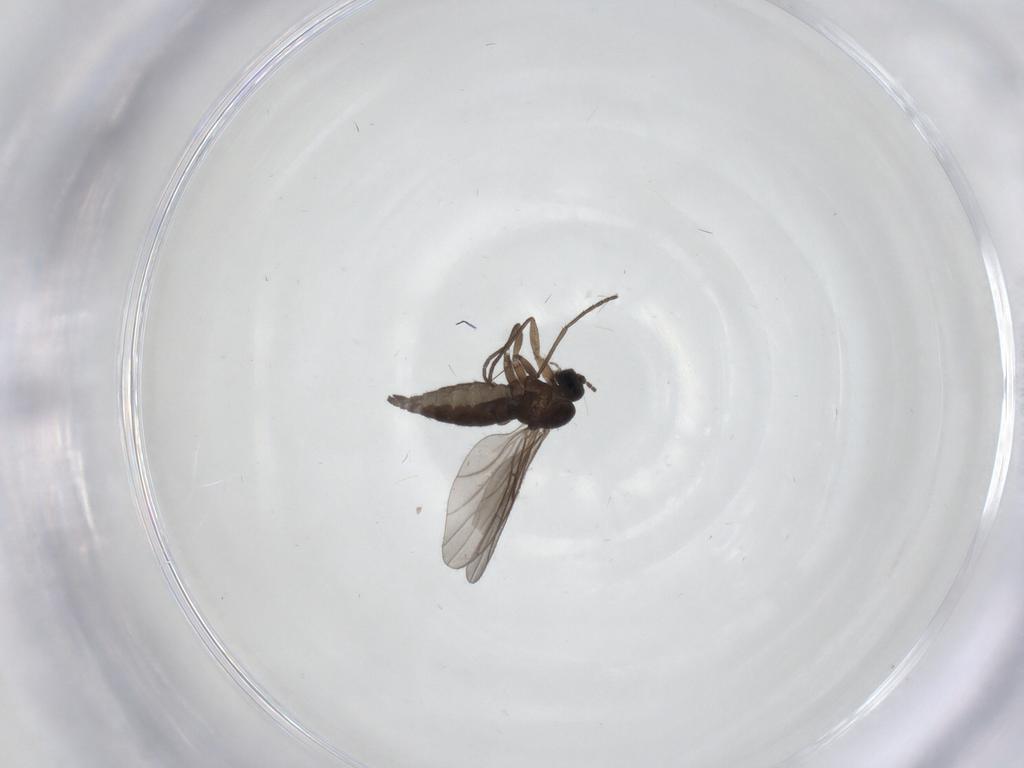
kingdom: Animalia
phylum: Arthropoda
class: Insecta
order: Diptera
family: Sciaridae
